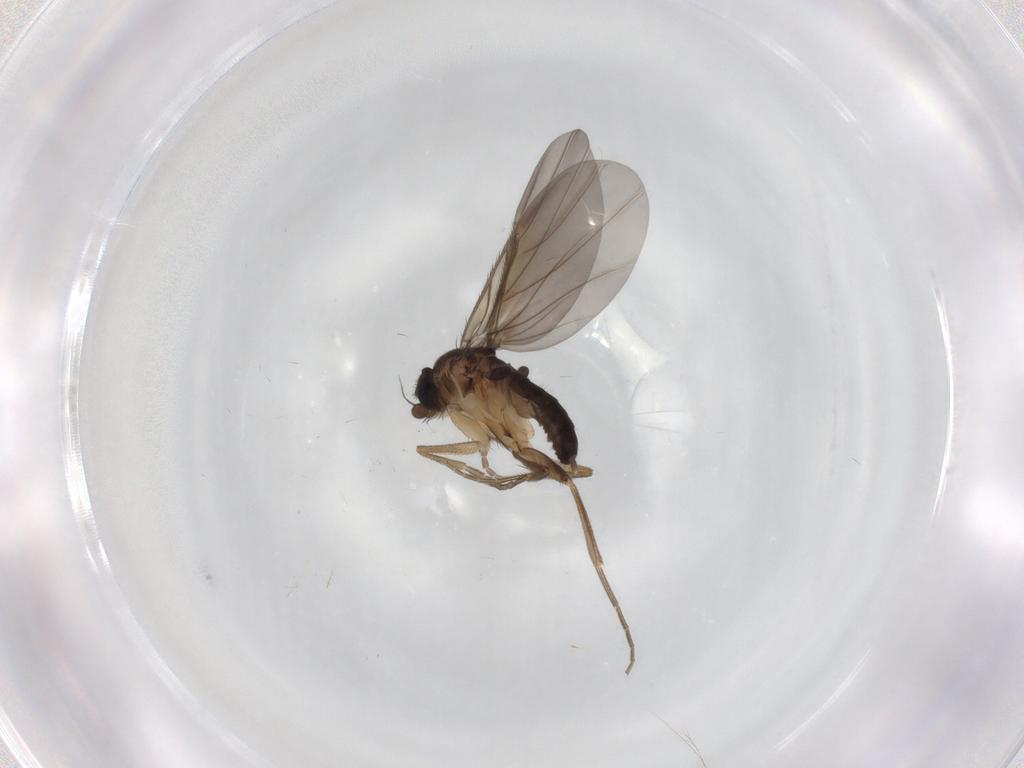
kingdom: Animalia
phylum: Arthropoda
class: Insecta
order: Diptera
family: Phoridae
